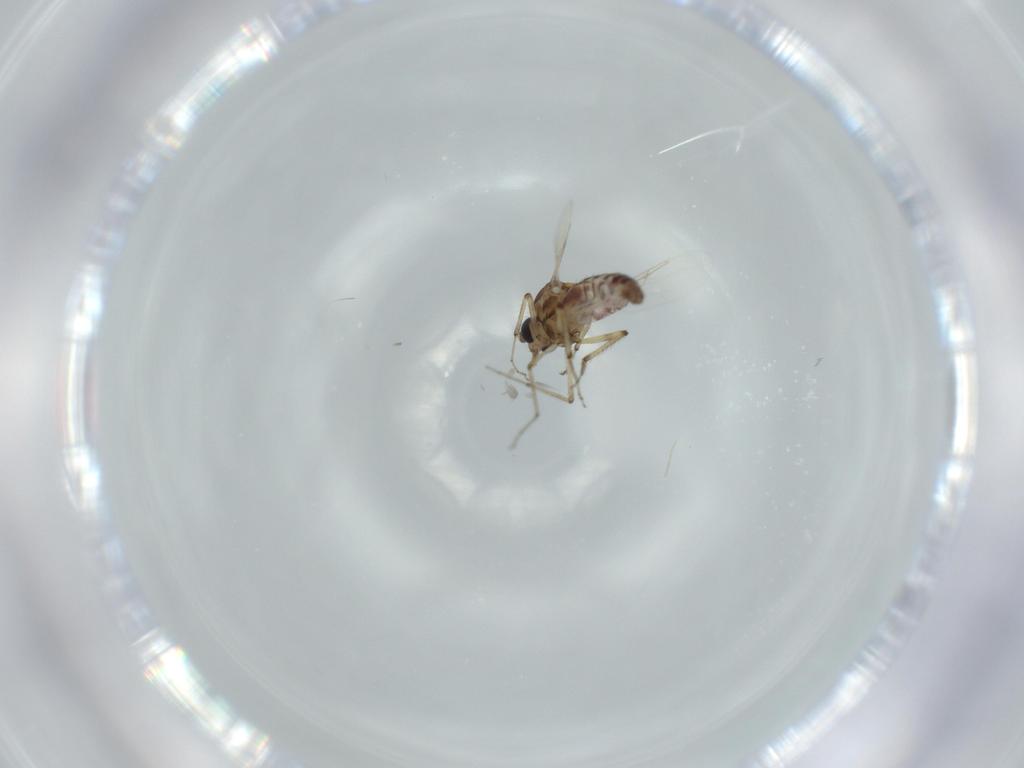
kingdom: Animalia
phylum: Arthropoda
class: Insecta
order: Diptera
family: Ceratopogonidae
